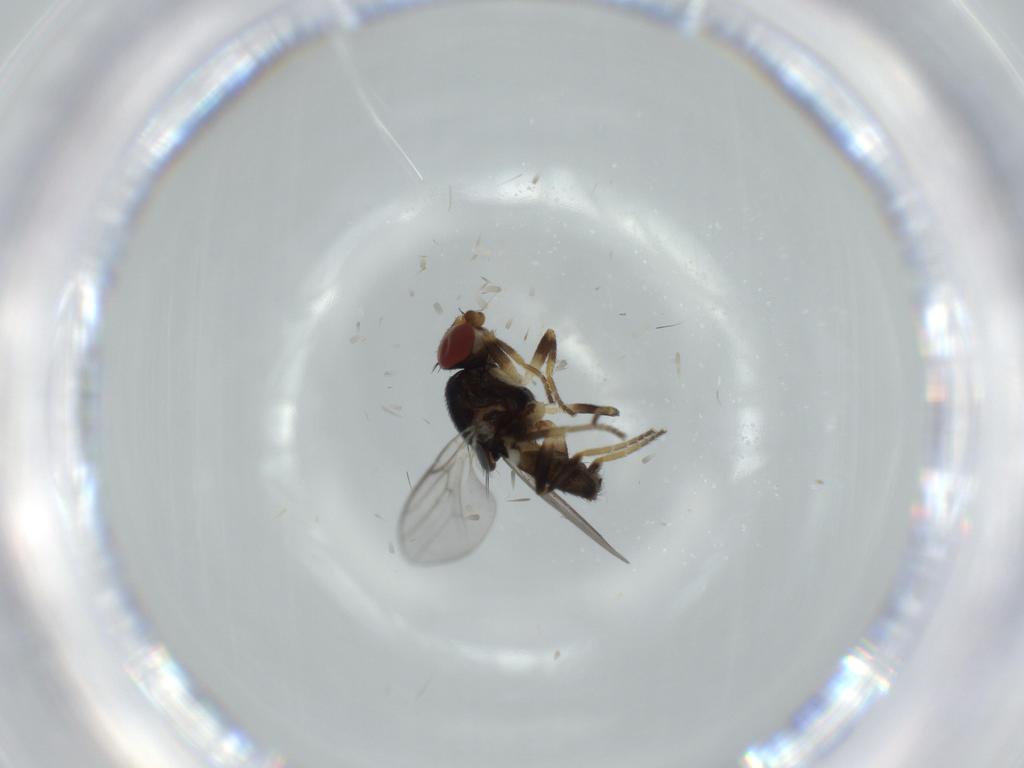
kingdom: Animalia
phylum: Arthropoda
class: Insecta
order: Diptera
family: Chloropidae
